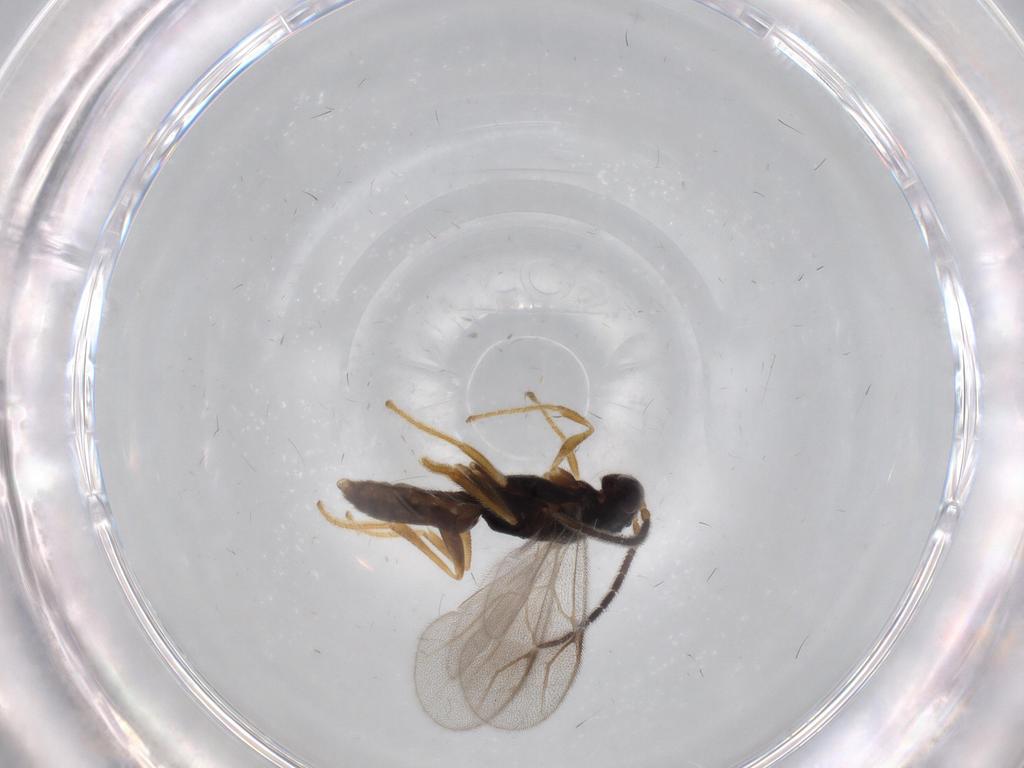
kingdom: Animalia
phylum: Arthropoda
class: Insecta
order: Hymenoptera
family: Dryinidae
